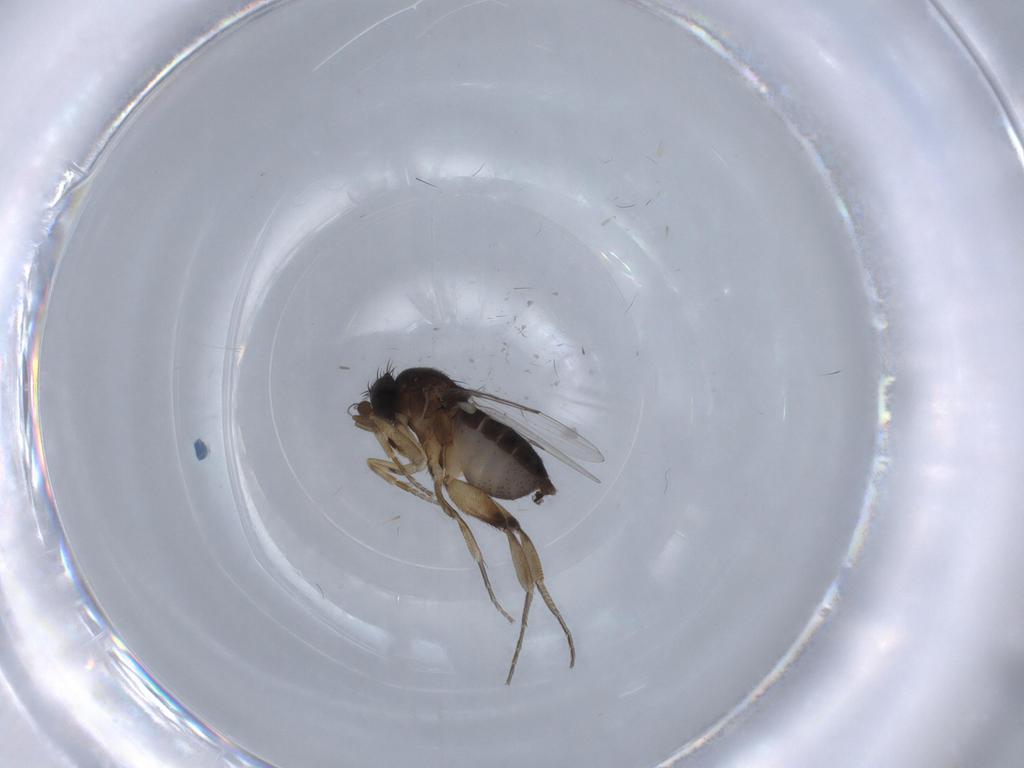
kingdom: Animalia
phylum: Arthropoda
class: Insecta
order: Diptera
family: Phoridae
